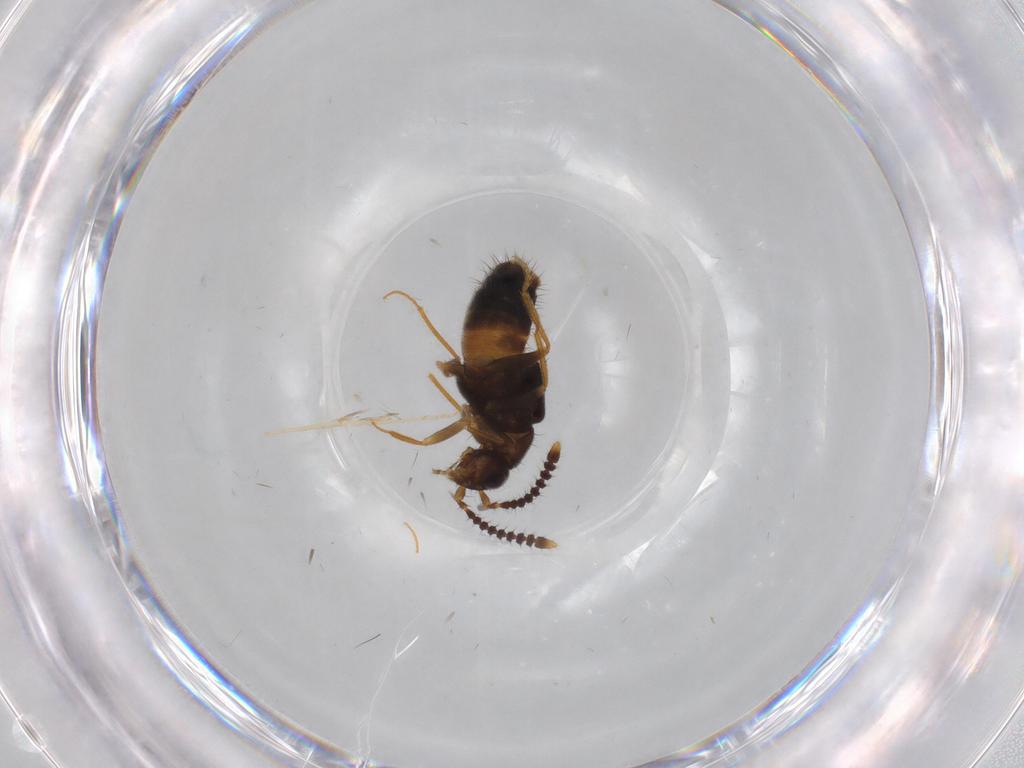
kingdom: Animalia
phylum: Arthropoda
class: Insecta
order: Coleoptera
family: Staphylinidae
